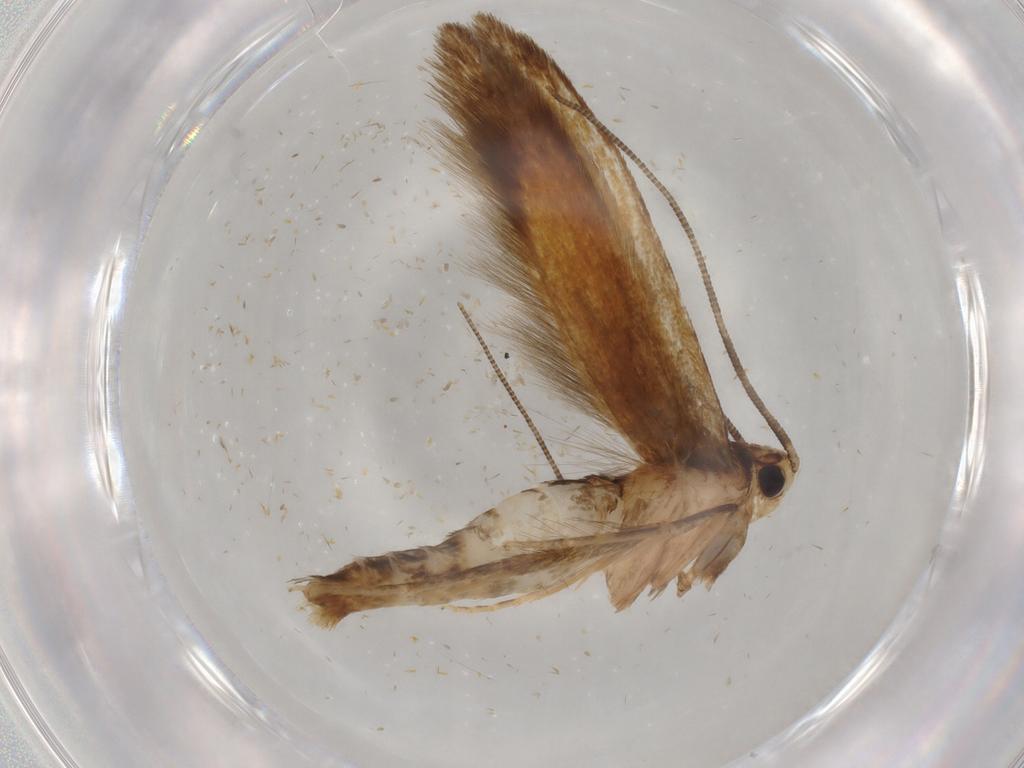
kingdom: Animalia
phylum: Arthropoda
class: Insecta
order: Lepidoptera
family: Tineidae
